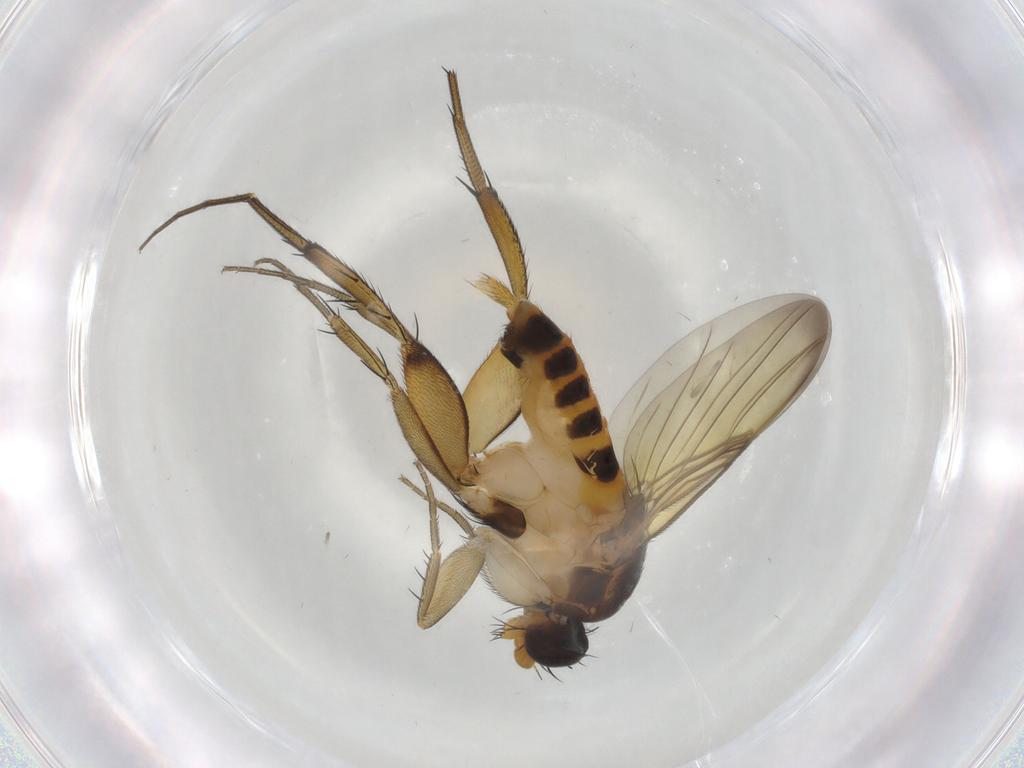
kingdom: Animalia
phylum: Arthropoda
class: Insecta
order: Diptera
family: Phoridae
